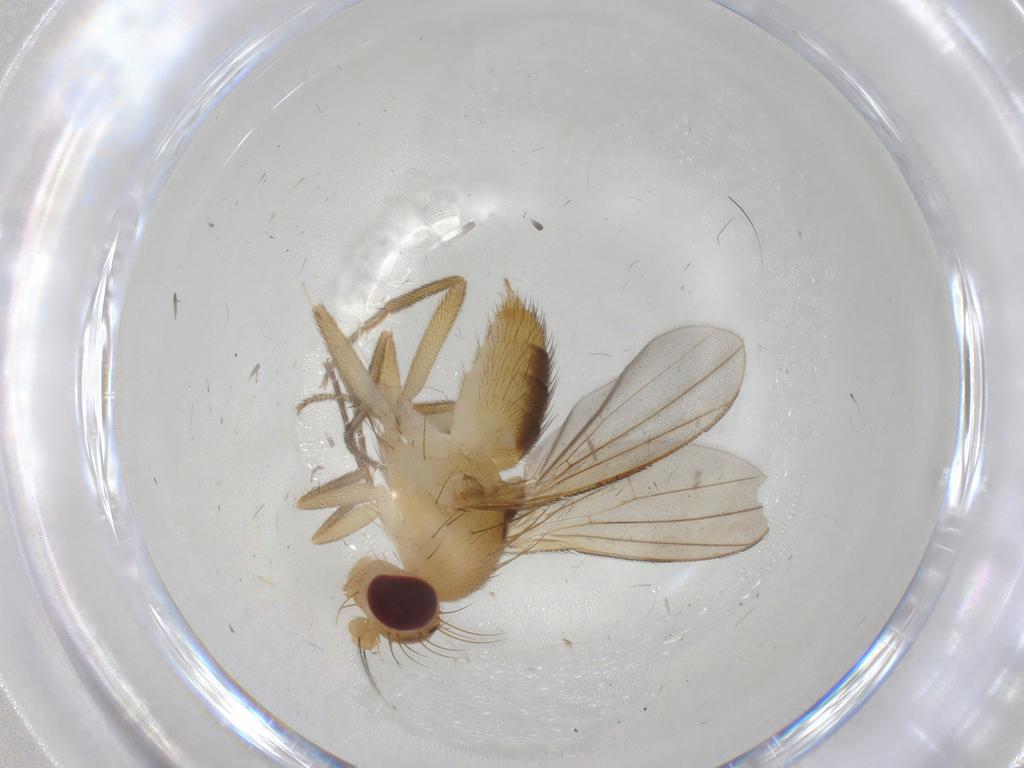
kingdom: Animalia
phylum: Arthropoda
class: Insecta
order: Diptera
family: Clusiidae
